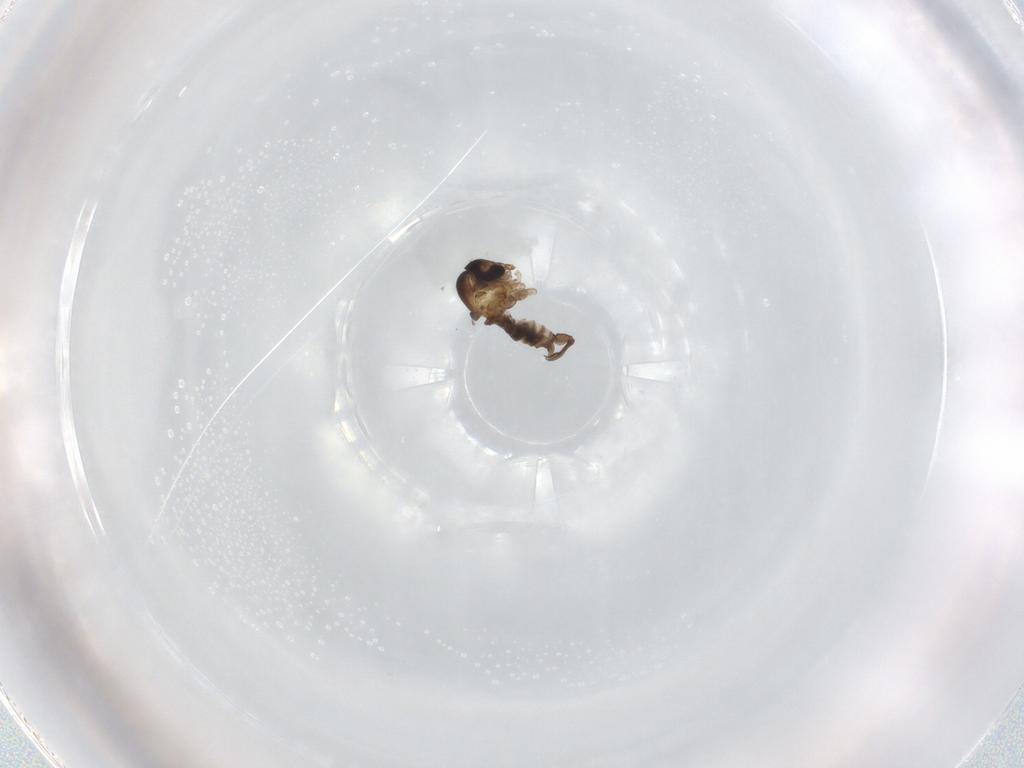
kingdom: Animalia
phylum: Arthropoda
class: Insecta
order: Diptera
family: Psychodidae
